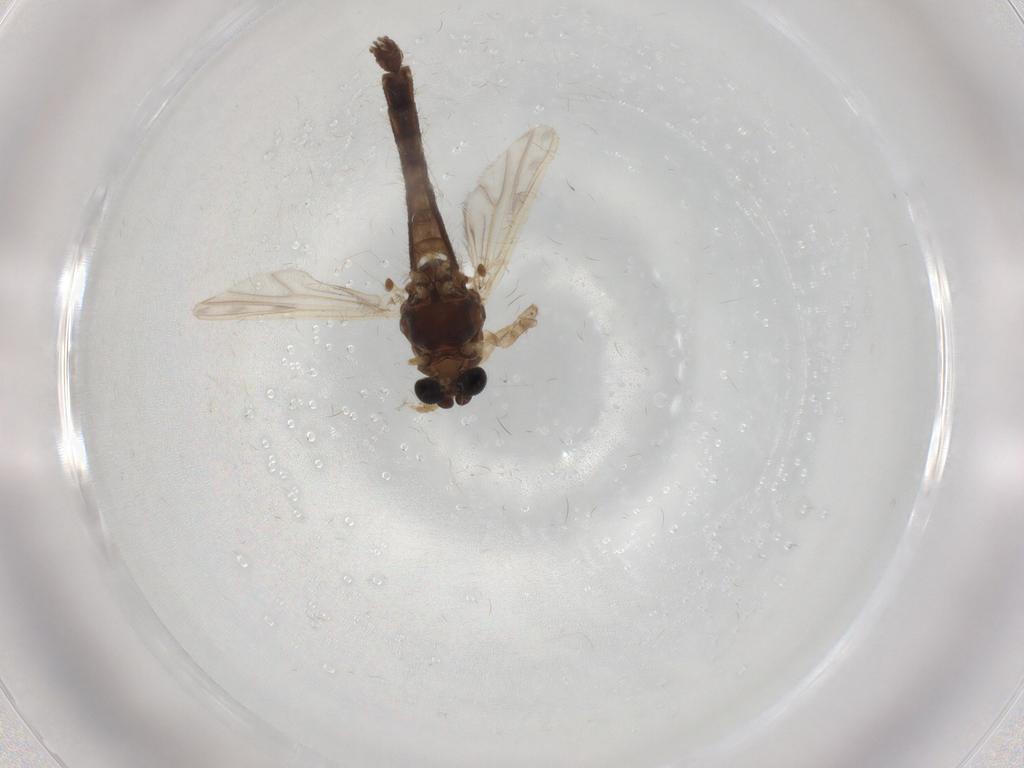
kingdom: Animalia
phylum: Arthropoda
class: Insecta
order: Diptera
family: Chironomidae
